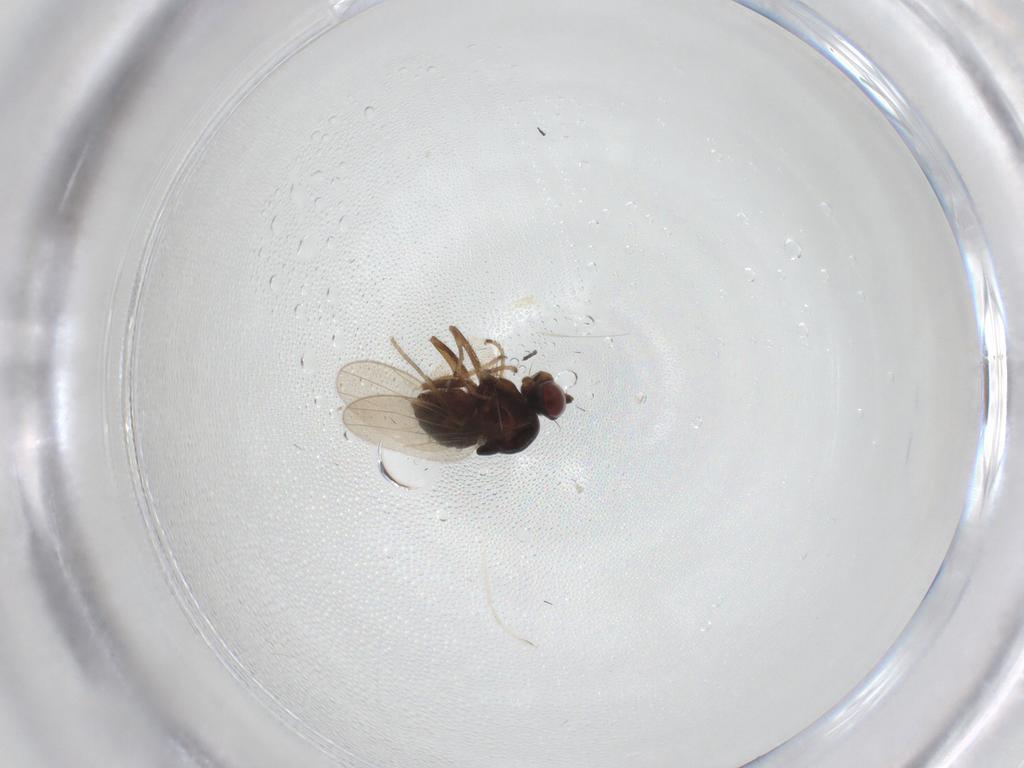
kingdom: Animalia
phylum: Arthropoda
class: Insecta
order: Diptera
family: Ephydridae
